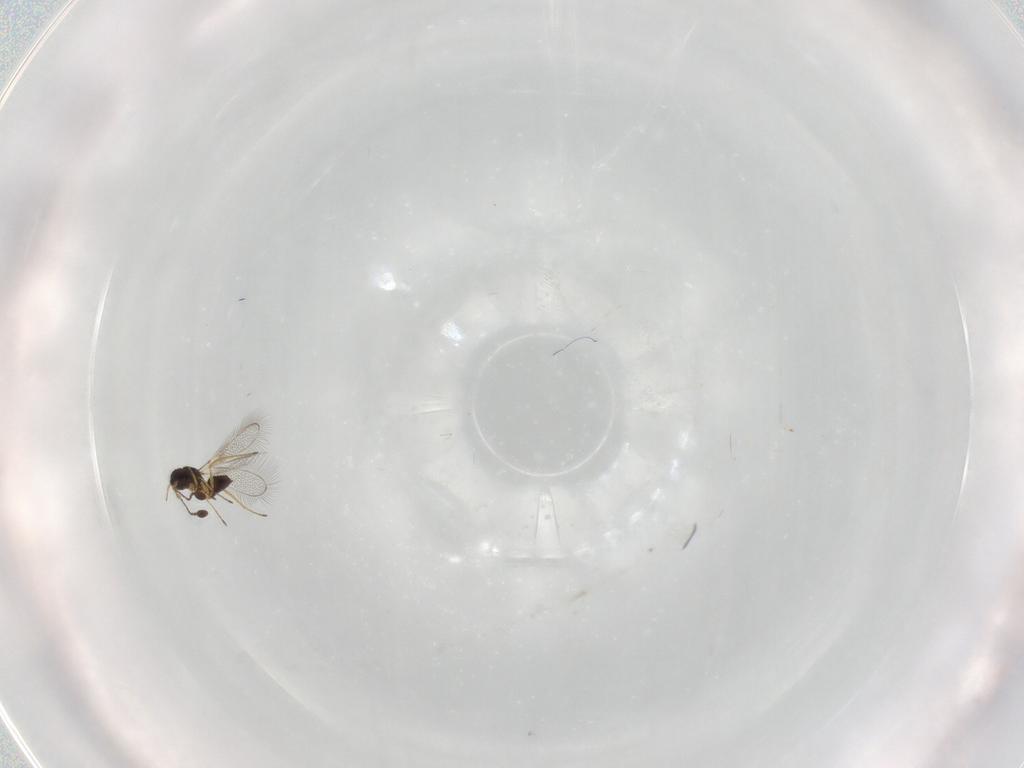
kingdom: Animalia
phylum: Arthropoda
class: Insecta
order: Hymenoptera
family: Mymaridae
